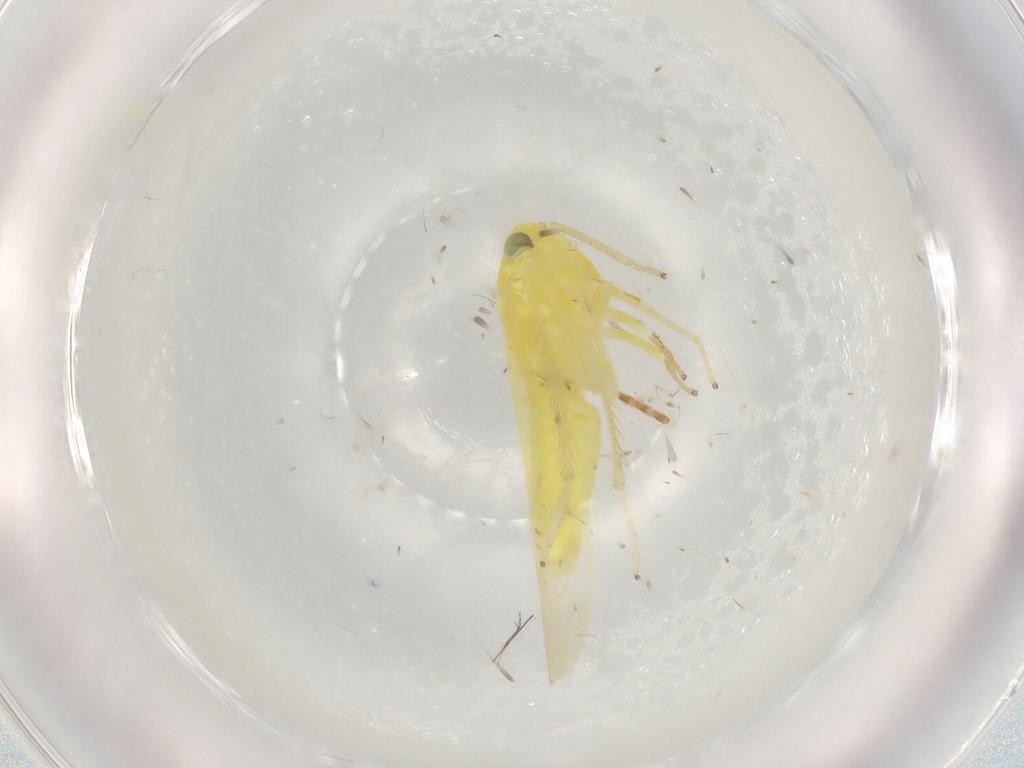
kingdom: Animalia
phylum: Arthropoda
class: Insecta
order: Hemiptera
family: Cicadellidae
